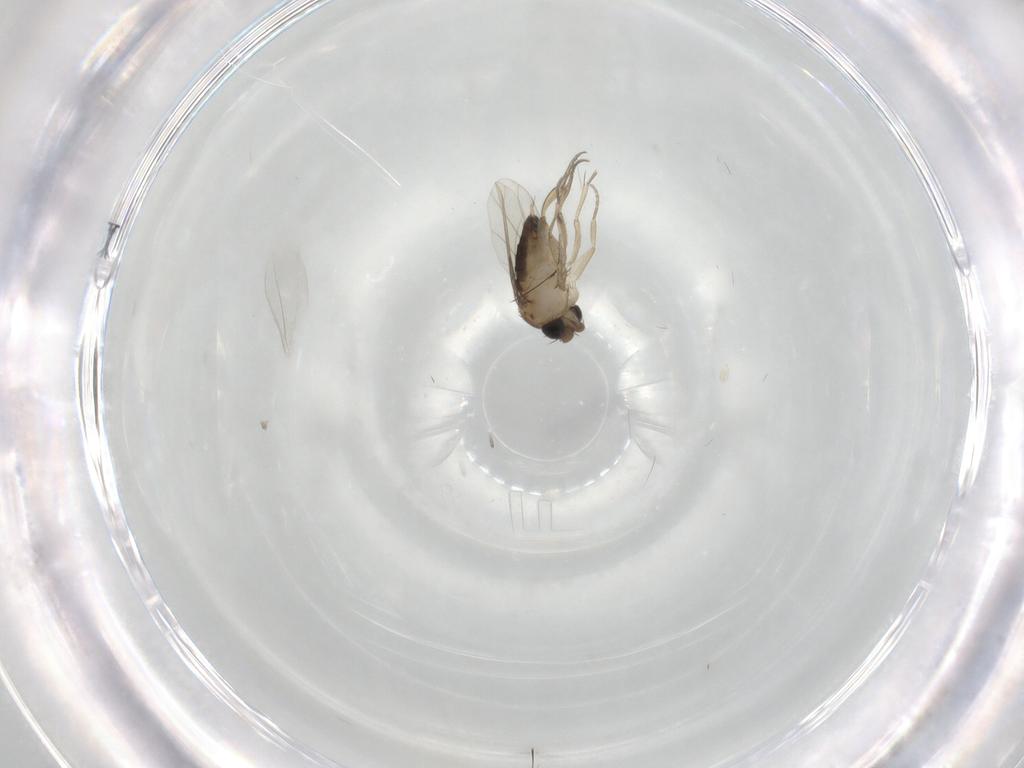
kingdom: Animalia
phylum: Arthropoda
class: Insecta
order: Diptera
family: Phoridae
